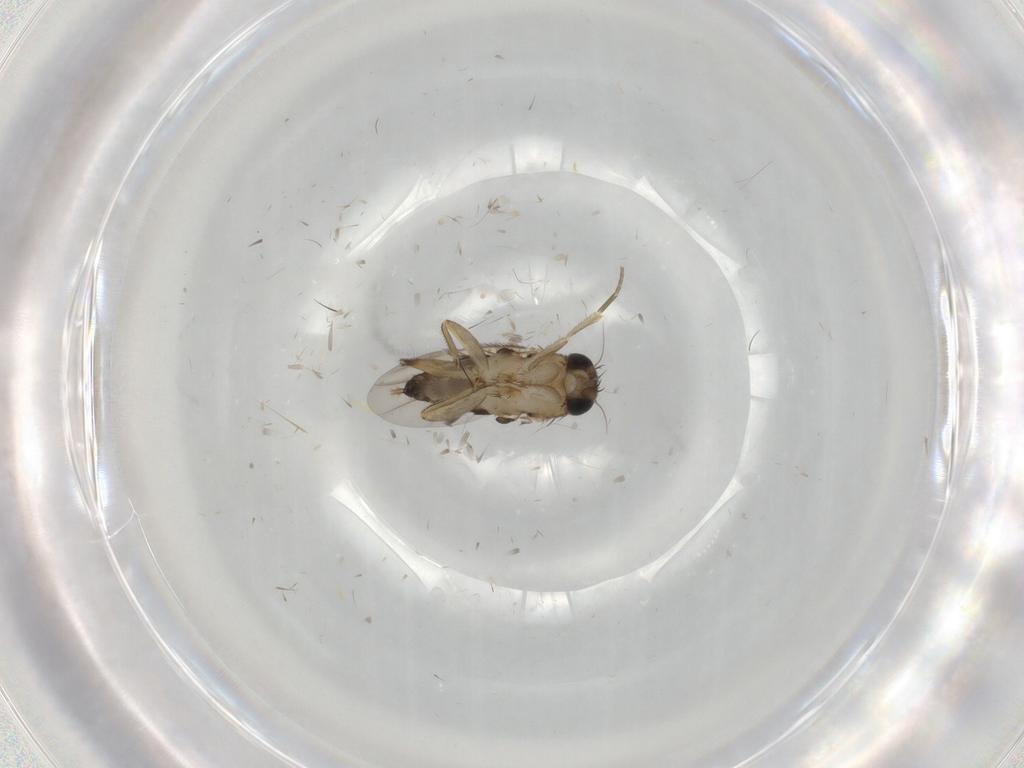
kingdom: Animalia
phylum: Arthropoda
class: Insecta
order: Diptera
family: Phoridae
